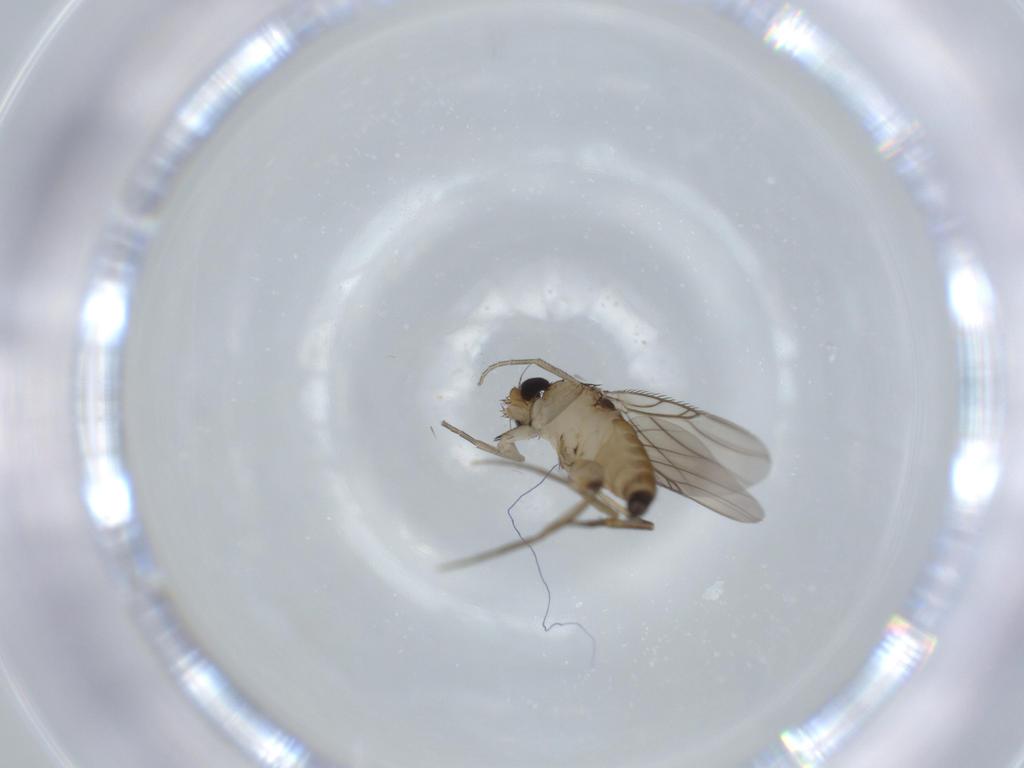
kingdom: Animalia
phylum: Arthropoda
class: Insecta
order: Diptera
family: Phoridae
